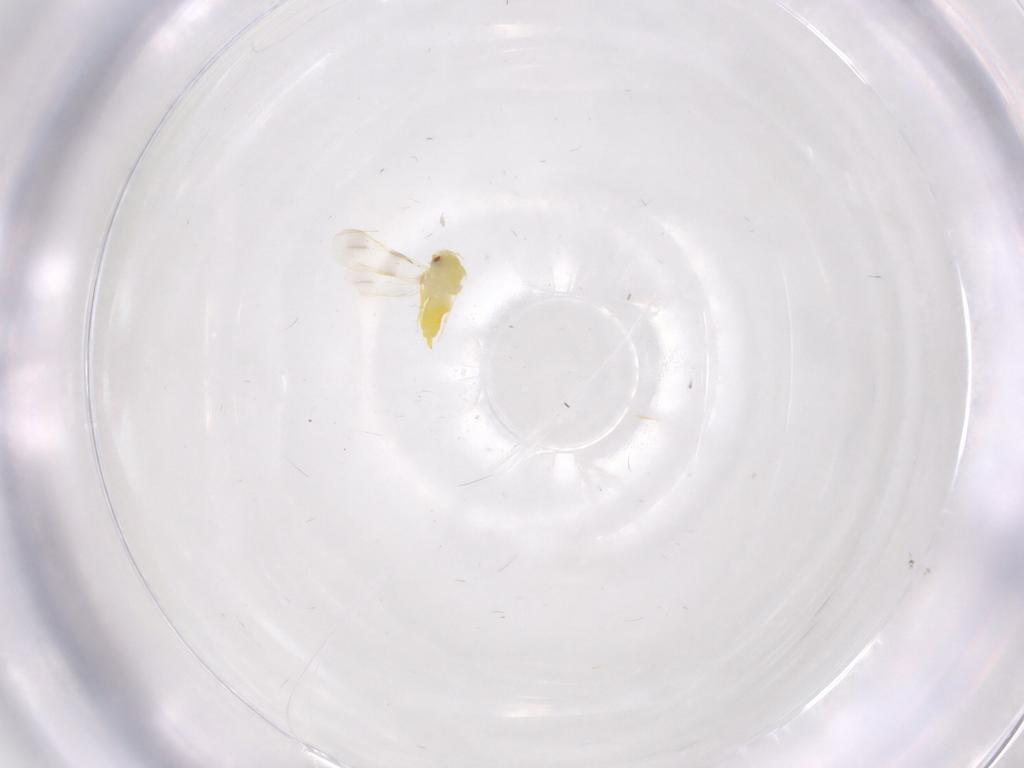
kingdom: Animalia
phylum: Arthropoda
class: Insecta
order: Hemiptera
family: Aleyrodidae
